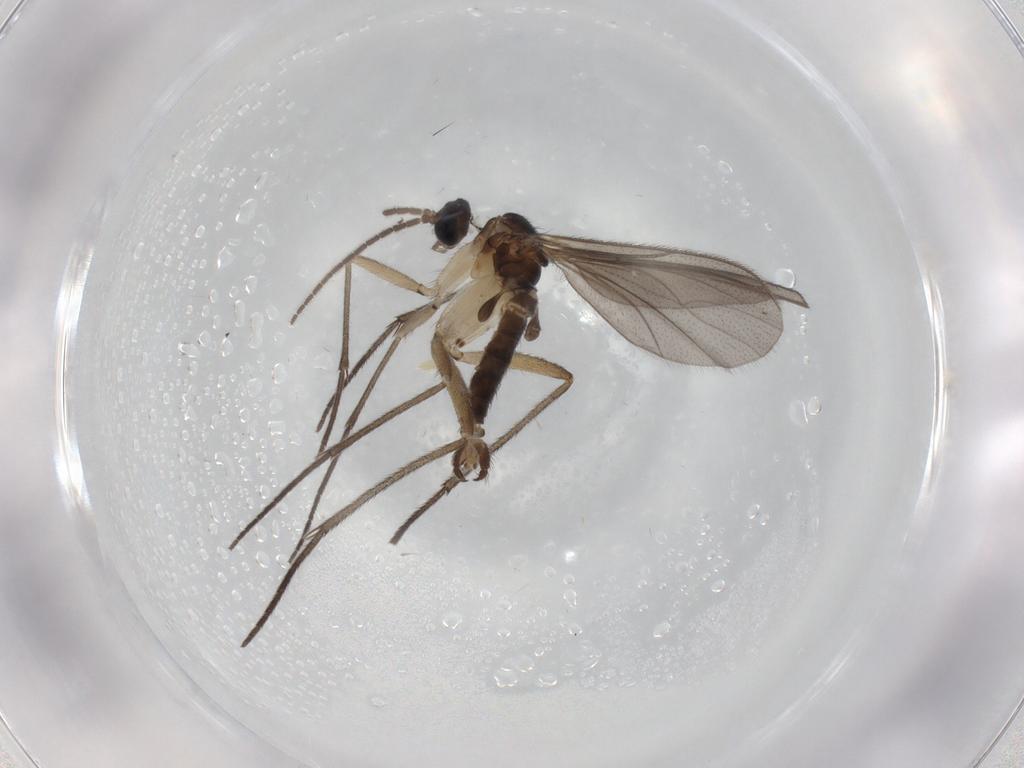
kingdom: Animalia
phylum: Arthropoda
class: Insecta
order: Diptera
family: Sciaridae
